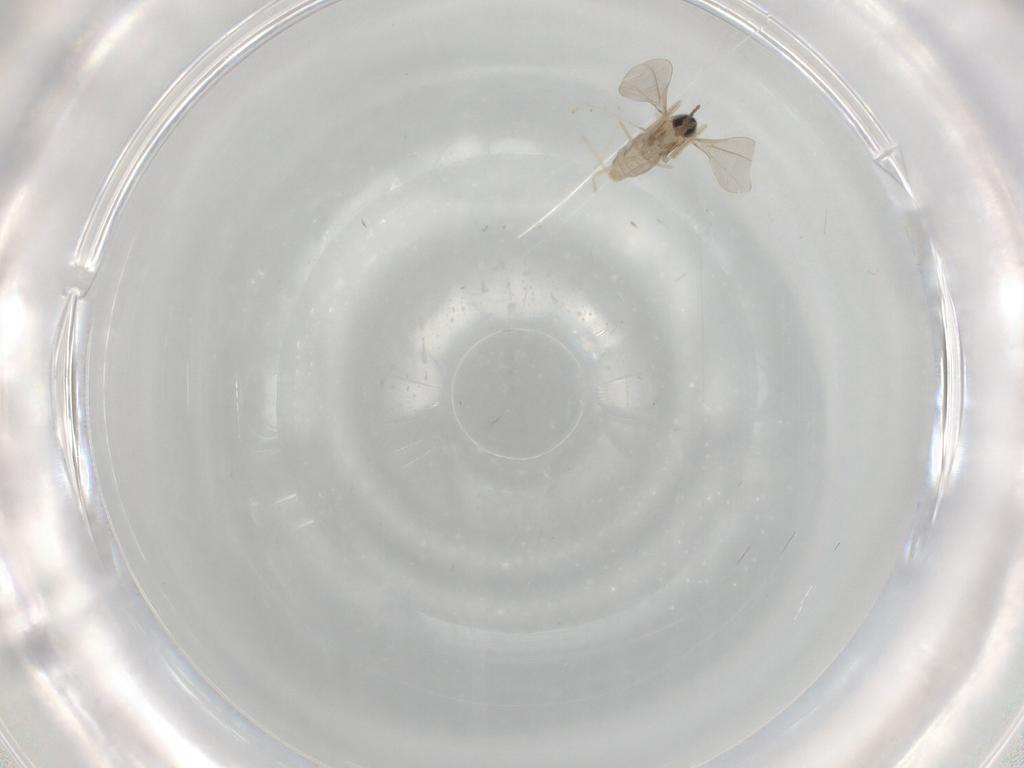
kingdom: Animalia
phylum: Arthropoda
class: Insecta
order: Diptera
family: Cecidomyiidae
